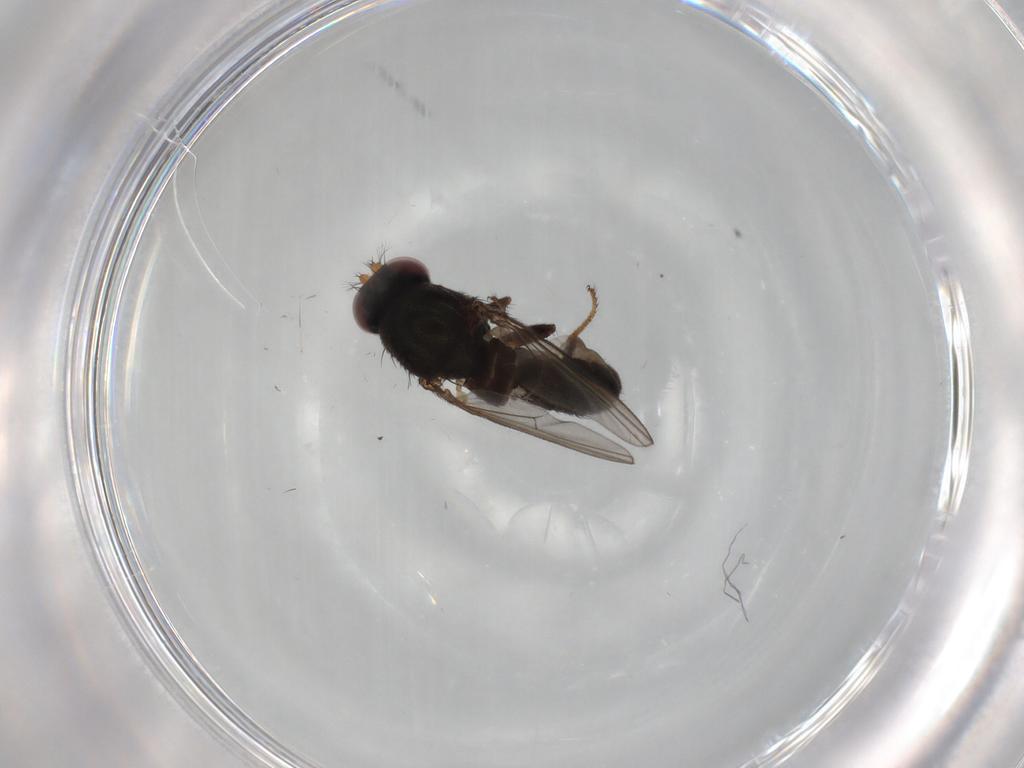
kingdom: Animalia
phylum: Arthropoda
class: Insecta
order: Diptera
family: Ephydridae
